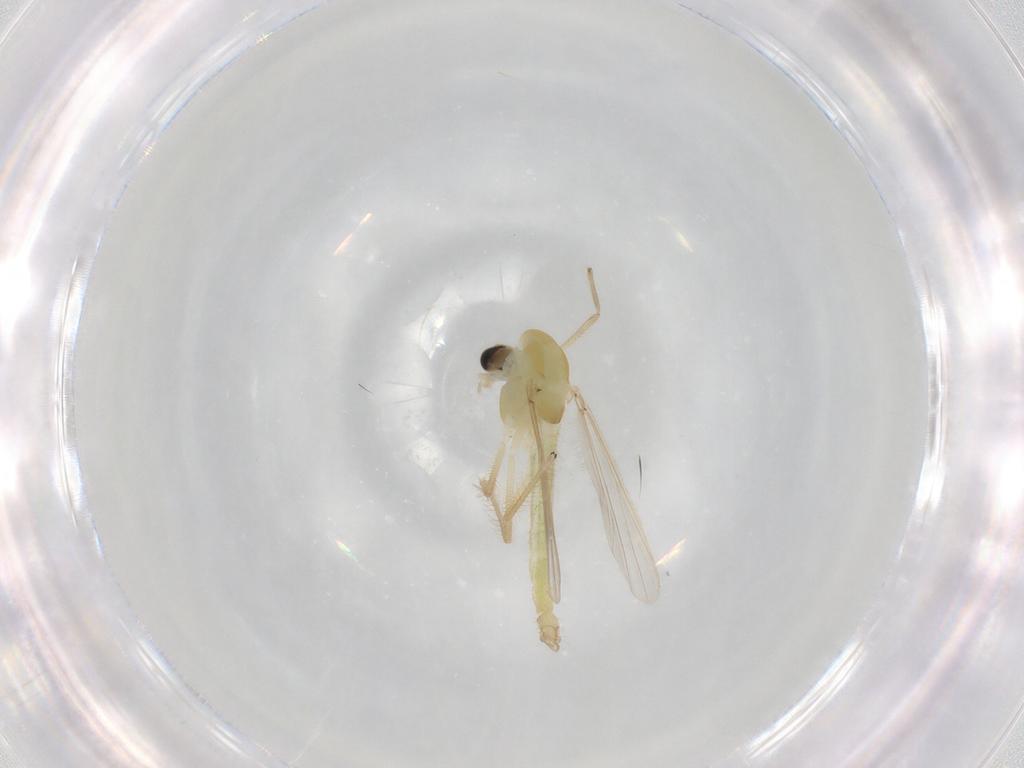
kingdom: Animalia
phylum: Arthropoda
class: Insecta
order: Diptera
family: Chironomidae
